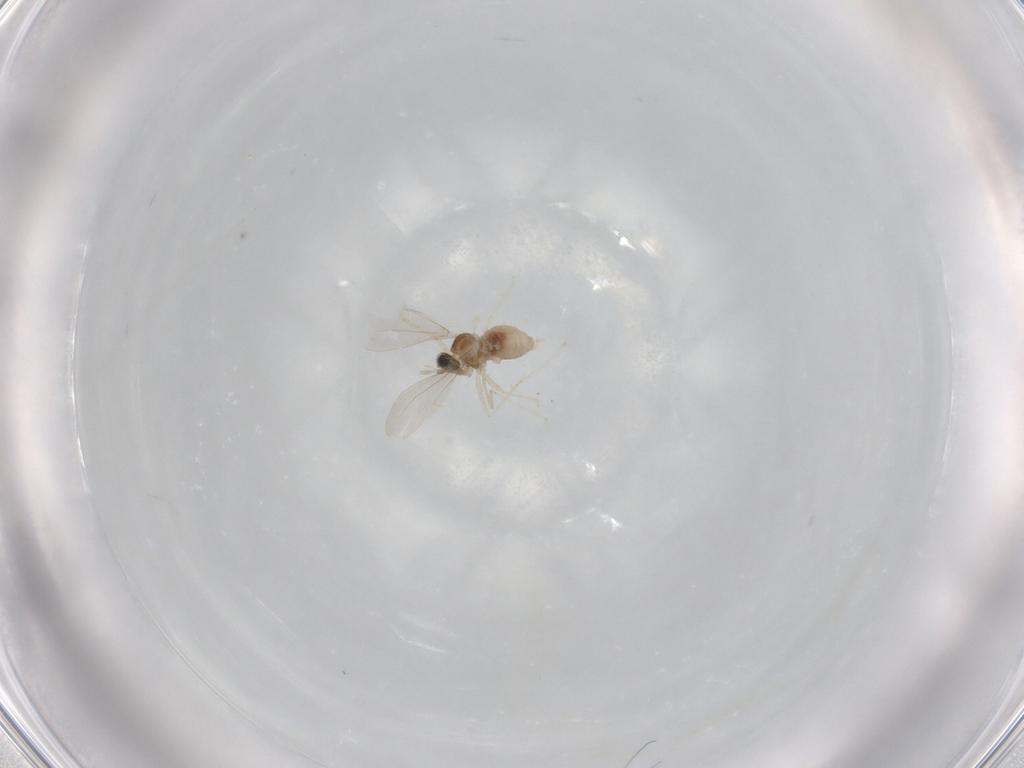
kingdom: Animalia
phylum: Arthropoda
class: Insecta
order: Diptera
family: Cecidomyiidae
